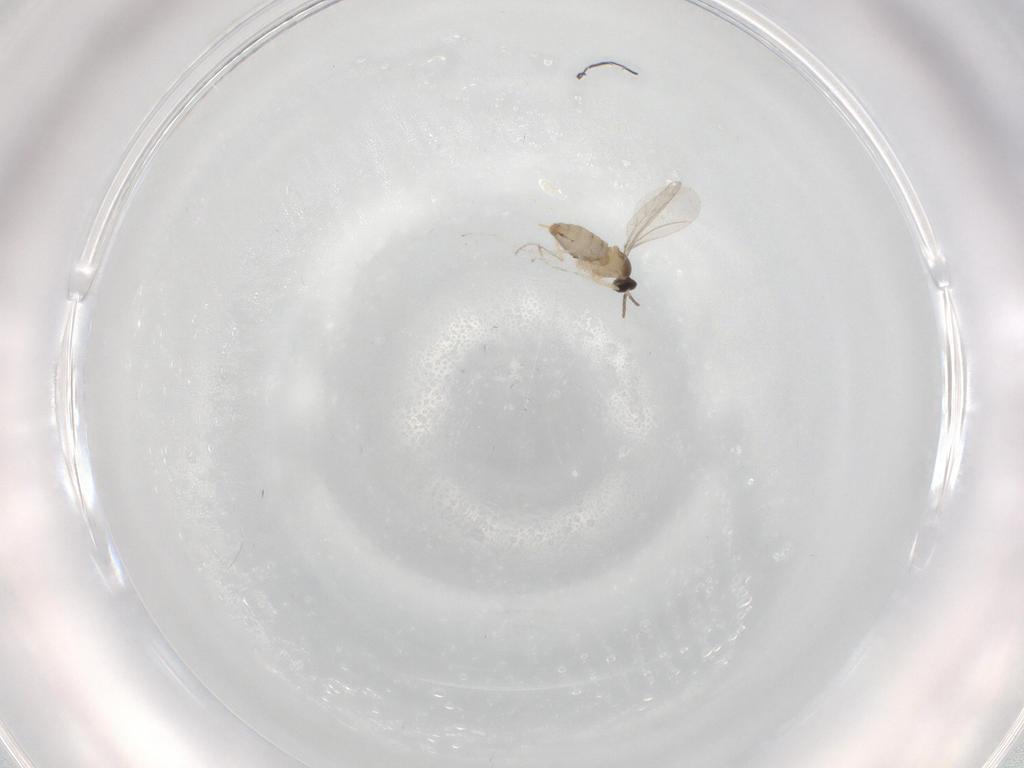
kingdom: Animalia
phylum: Arthropoda
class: Insecta
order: Diptera
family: Cecidomyiidae
